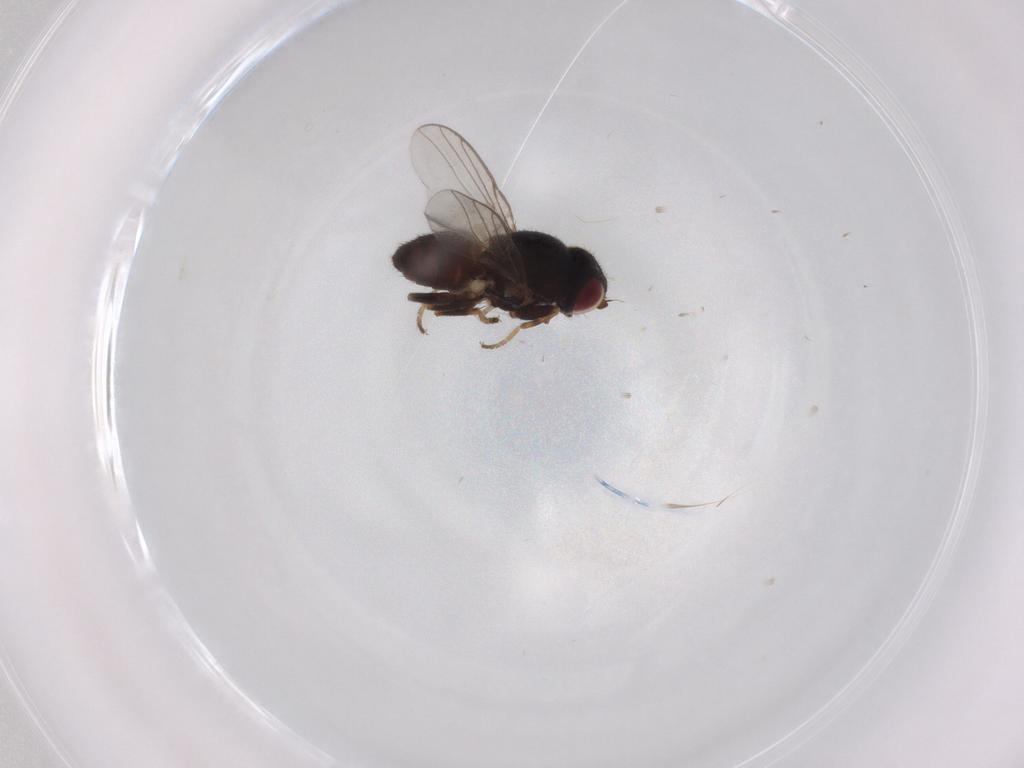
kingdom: Animalia
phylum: Arthropoda
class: Insecta
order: Diptera
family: Chloropidae
